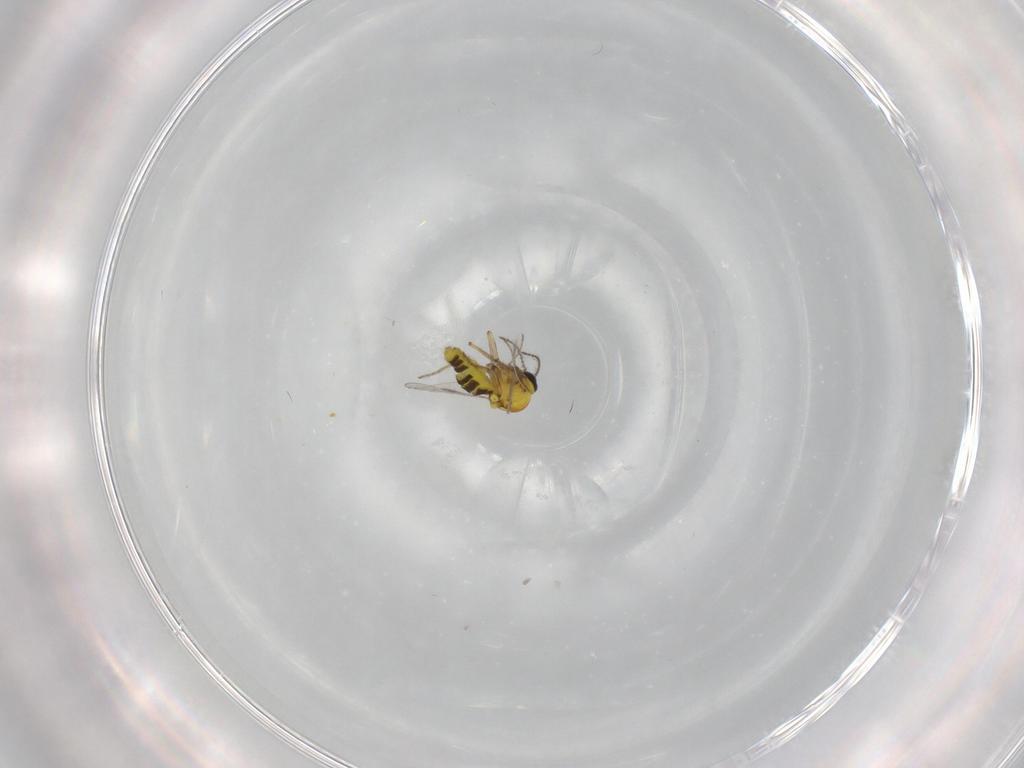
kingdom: Animalia
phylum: Arthropoda
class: Insecta
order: Diptera
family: Ceratopogonidae
